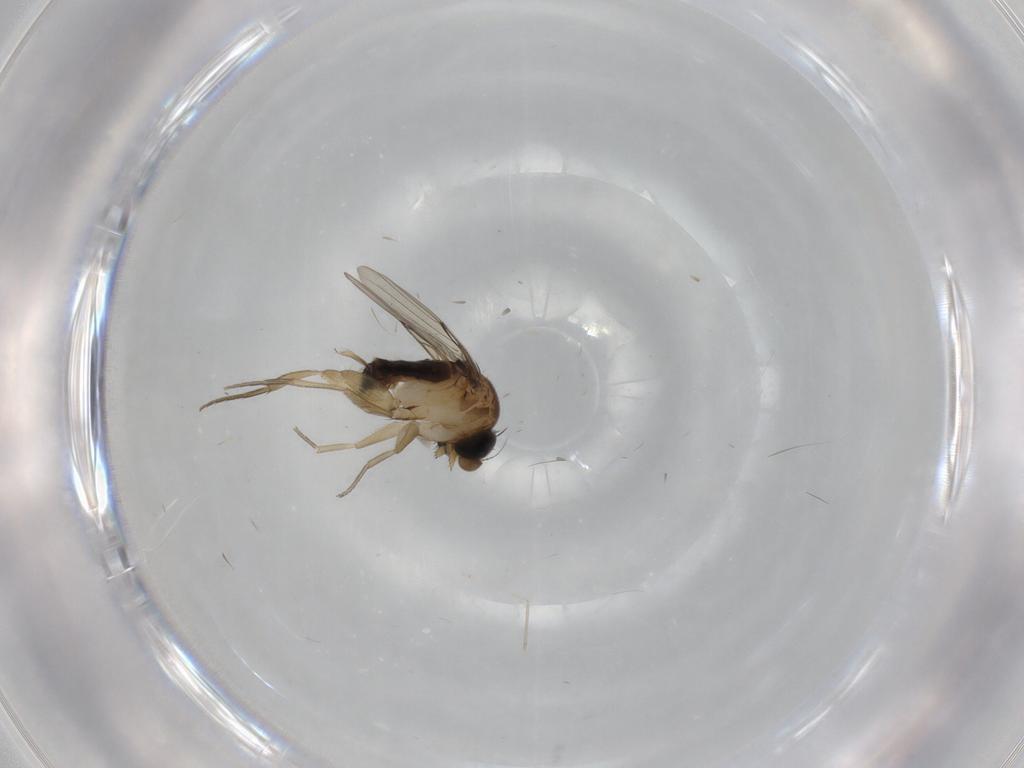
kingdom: Animalia
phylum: Arthropoda
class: Insecta
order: Diptera
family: Phoridae
